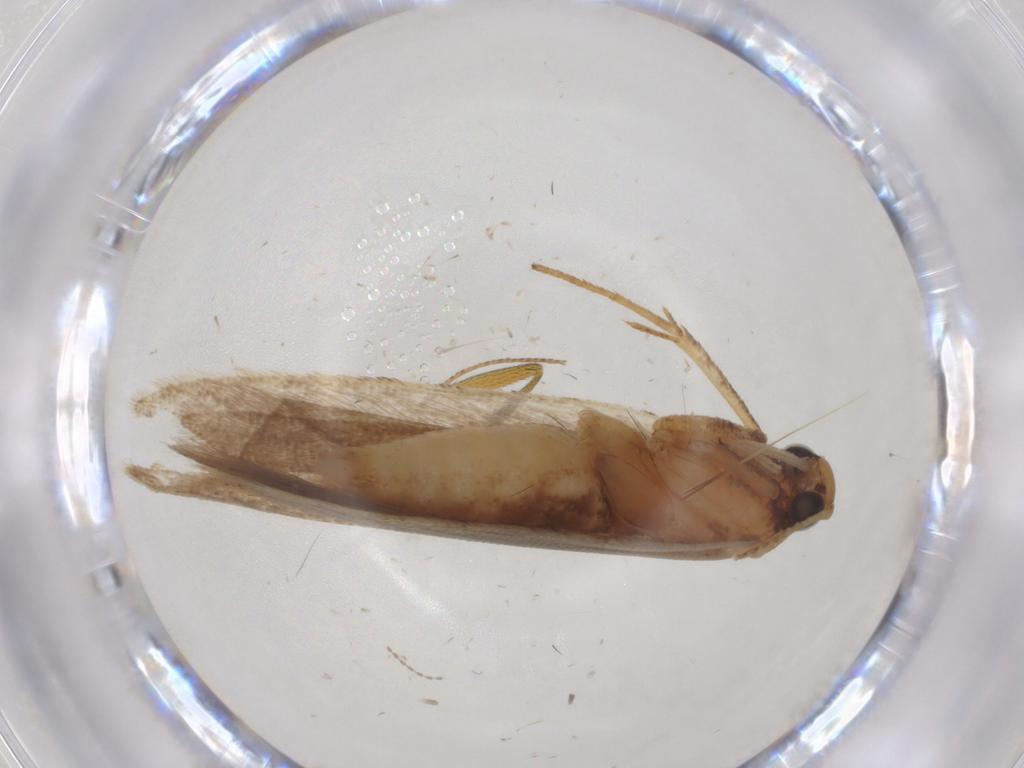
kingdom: Animalia
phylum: Arthropoda
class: Insecta
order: Lepidoptera
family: Gelechiidae
